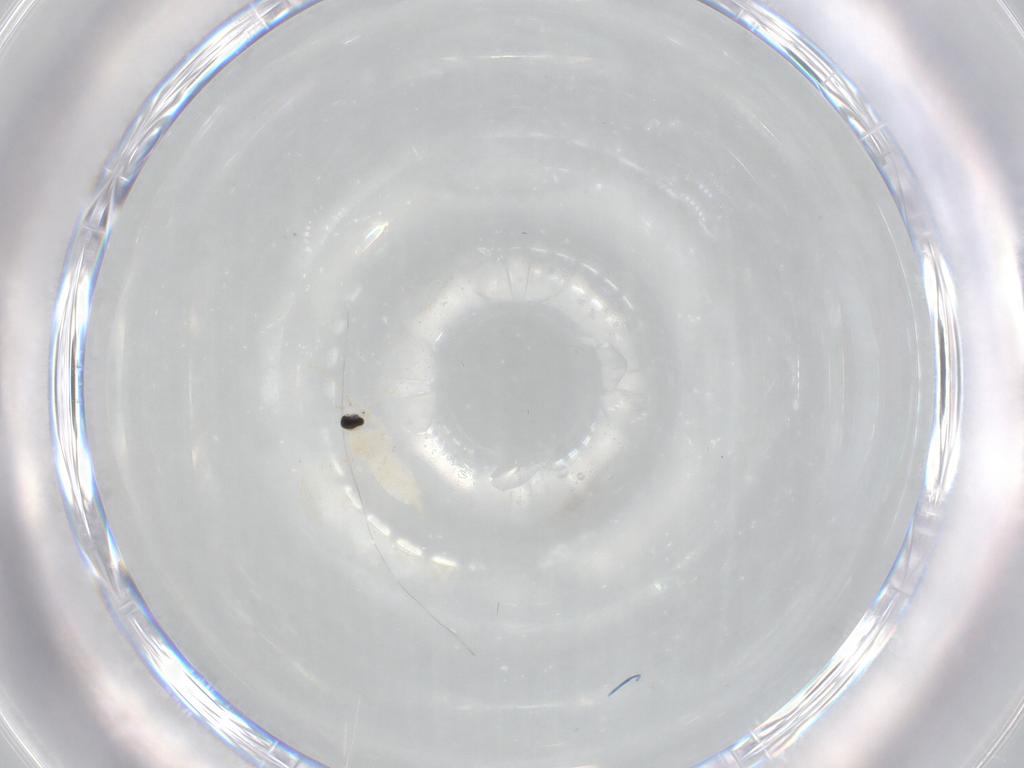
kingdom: Animalia
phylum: Arthropoda
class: Insecta
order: Diptera
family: Cecidomyiidae
